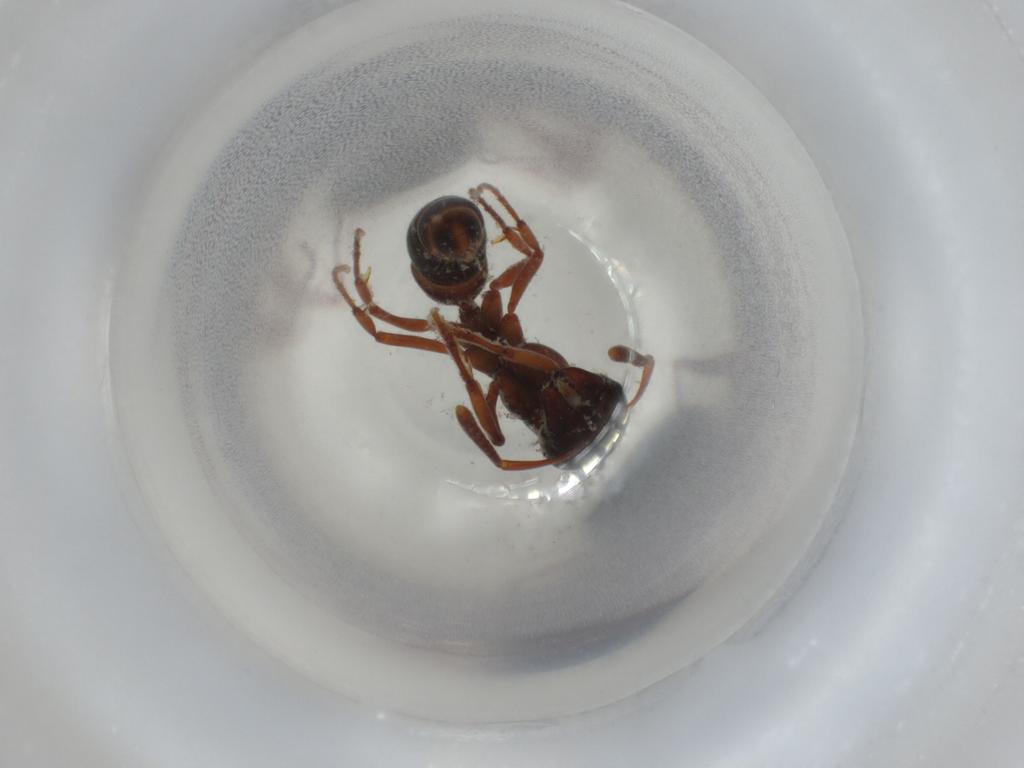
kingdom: Animalia
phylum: Arthropoda
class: Insecta
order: Hymenoptera
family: Formicidae
